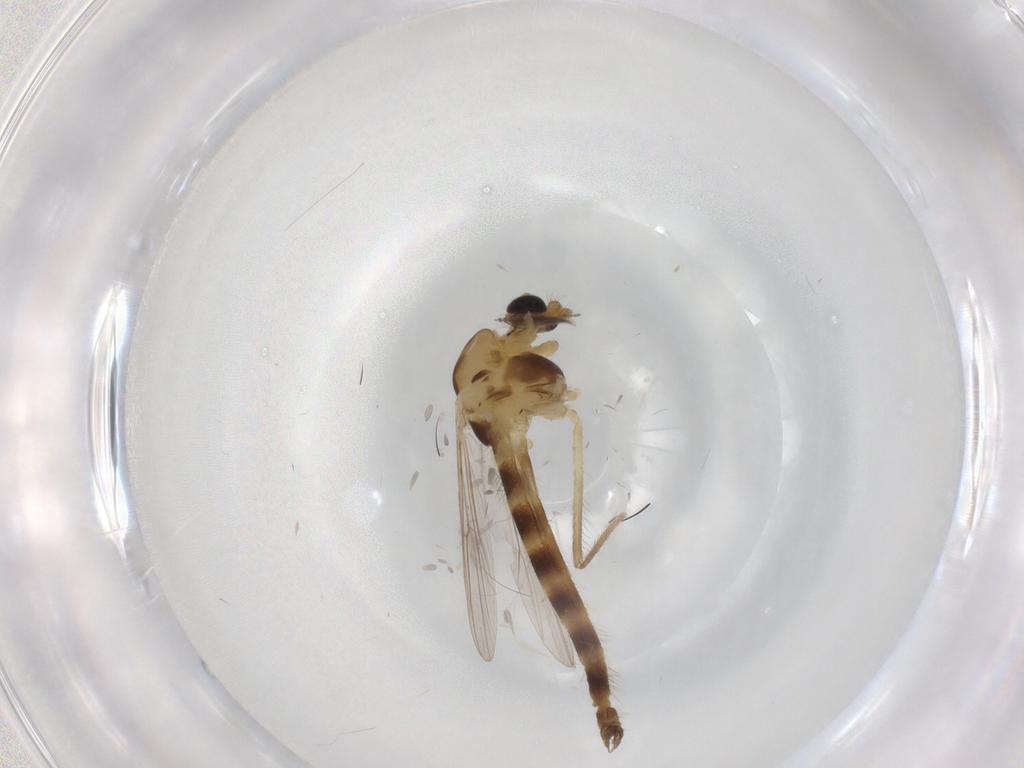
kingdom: Animalia
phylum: Arthropoda
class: Insecta
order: Diptera
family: Chironomidae
